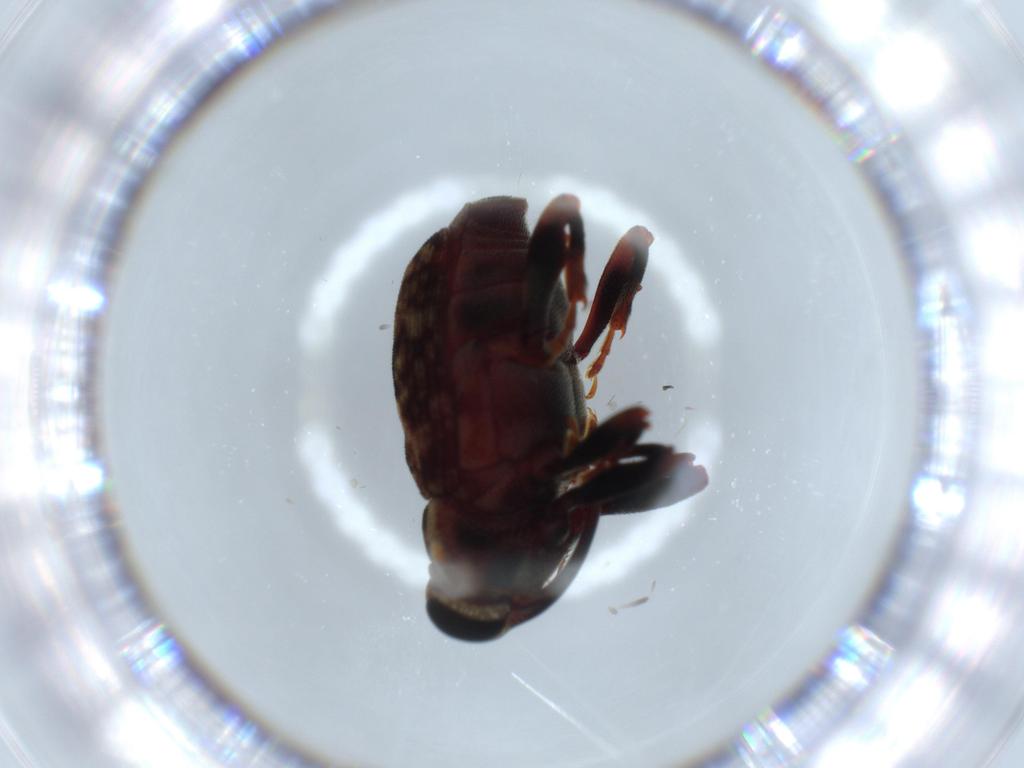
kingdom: Animalia
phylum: Arthropoda
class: Insecta
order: Coleoptera
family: Curculionidae
